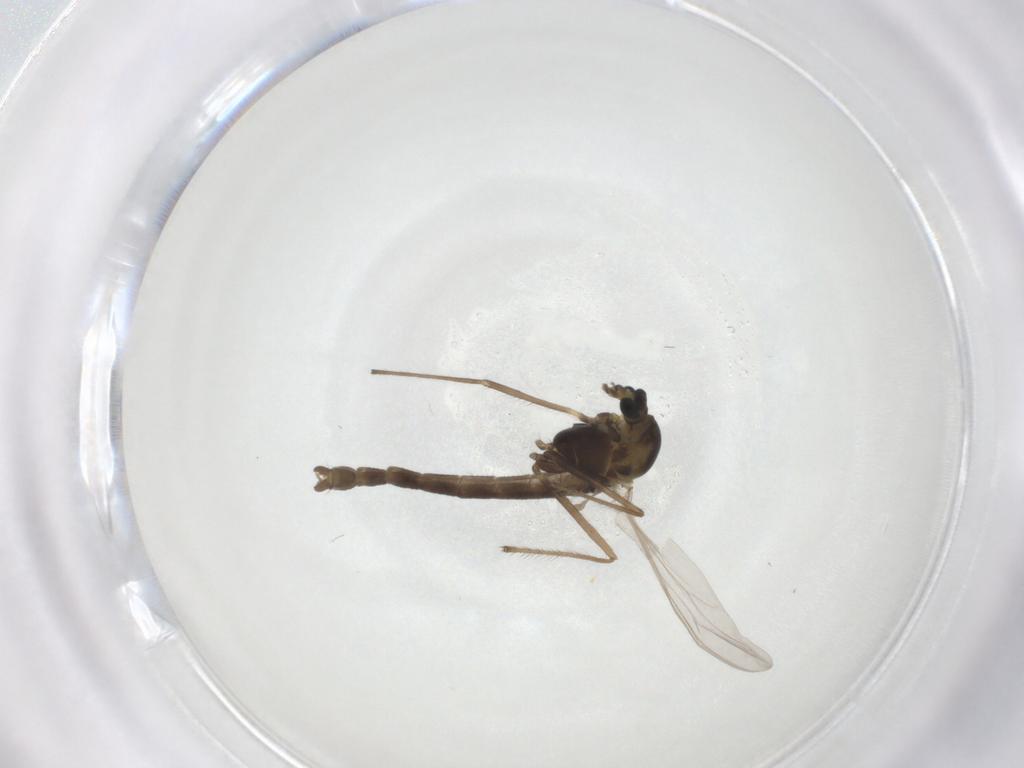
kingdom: Animalia
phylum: Arthropoda
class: Insecta
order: Diptera
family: Chironomidae
